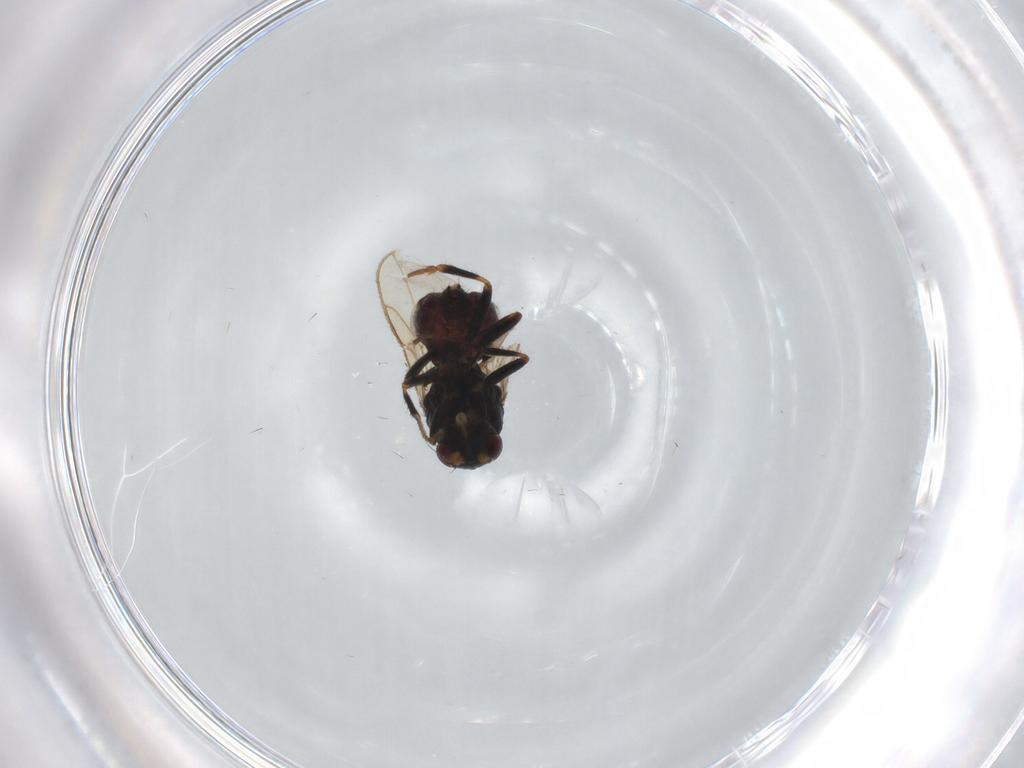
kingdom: Animalia
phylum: Arthropoda
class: Insecta
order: Diptera
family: Sphaeroceridae
